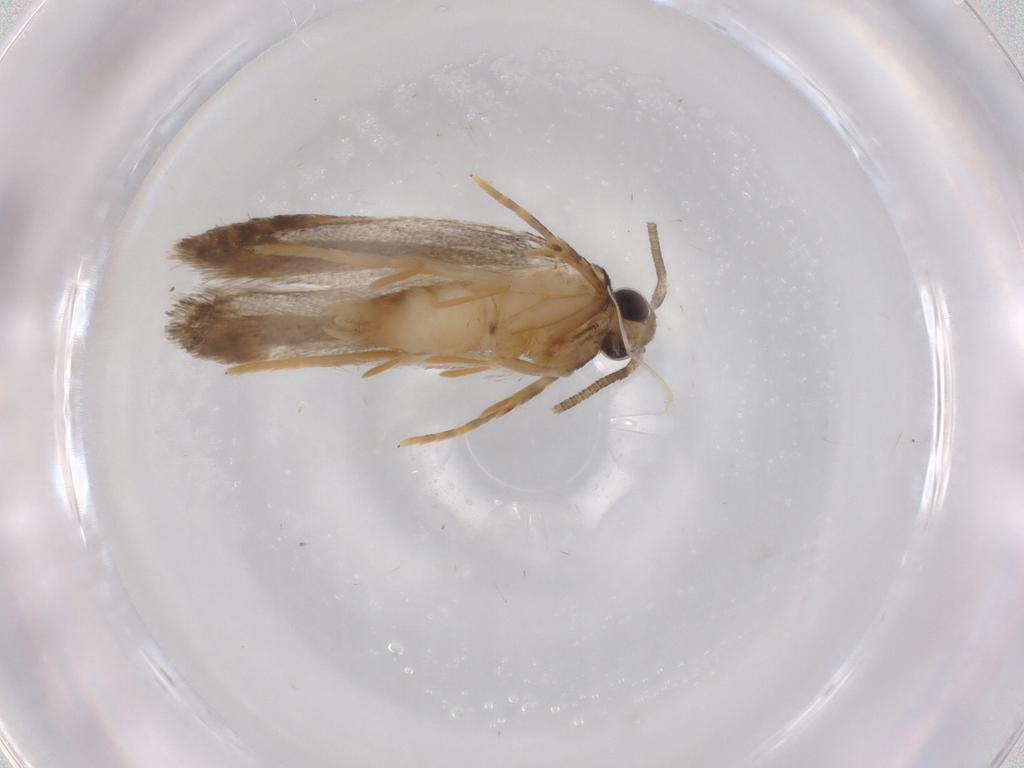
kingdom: Animalia
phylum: Arthropoda
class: Insecta
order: Lepidoptera
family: Autostichidae
